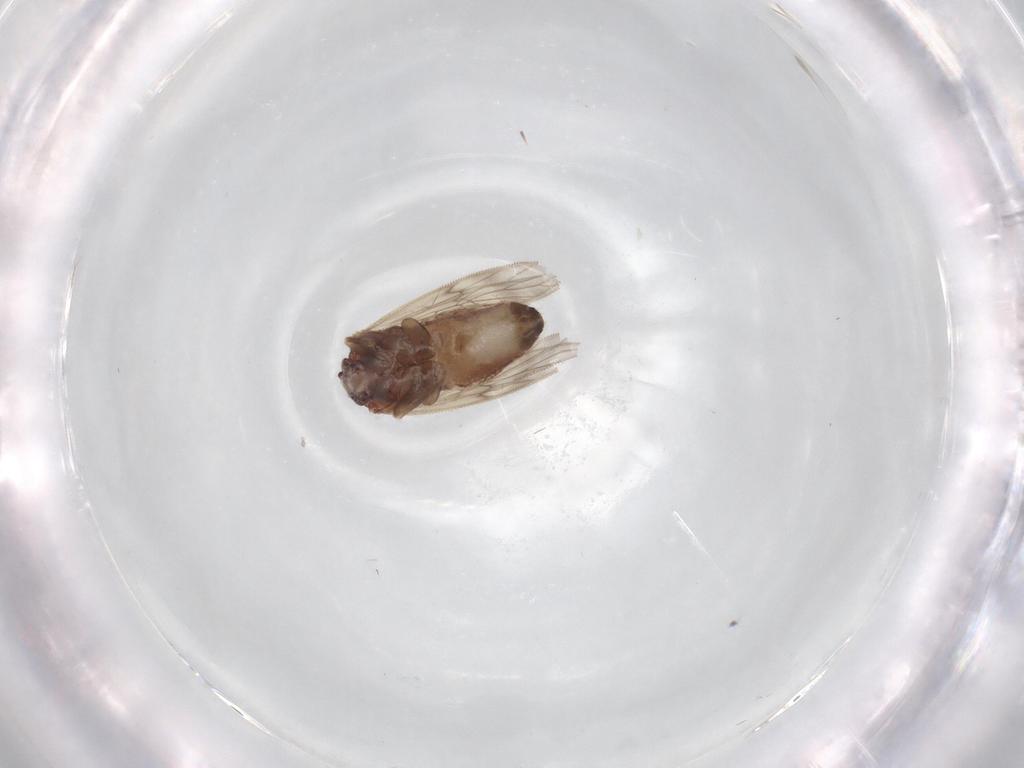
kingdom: Animalia
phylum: Arthropoda
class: Insecta
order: Psocodea
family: Lepidopsocidae
